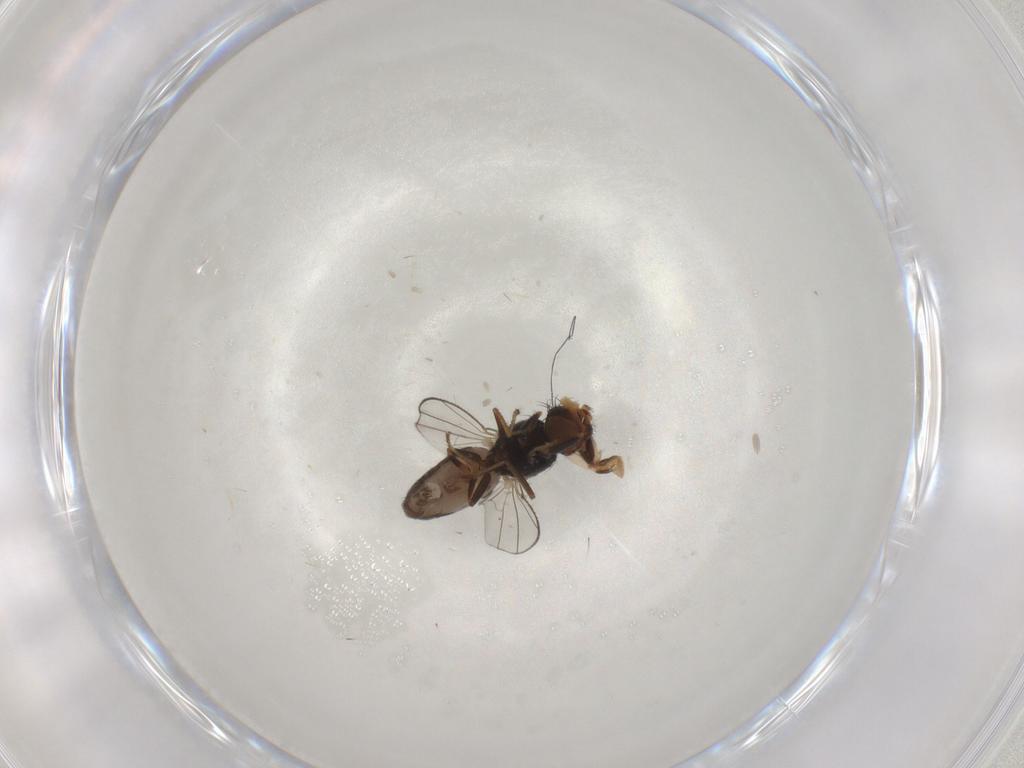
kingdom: Animalia
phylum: Arthropoda
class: Insecta
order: Diptera
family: Ephydridae
